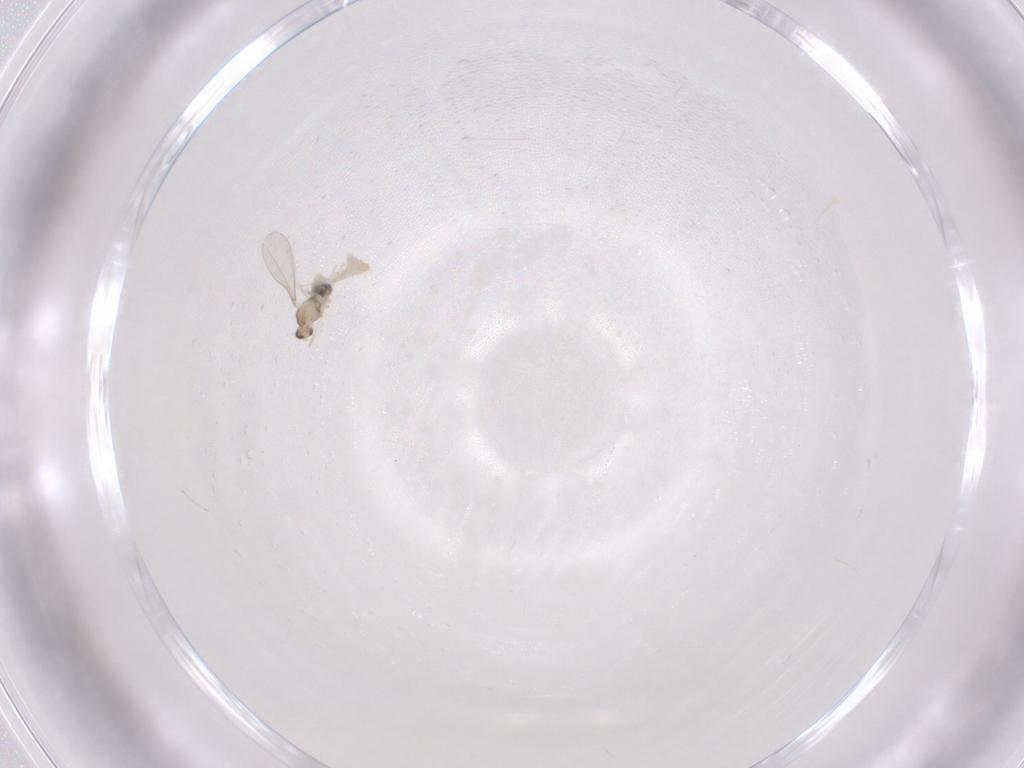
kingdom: Animalia
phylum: Arthropoda
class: Insecta
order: Diptera
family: Cecidomyiidae
